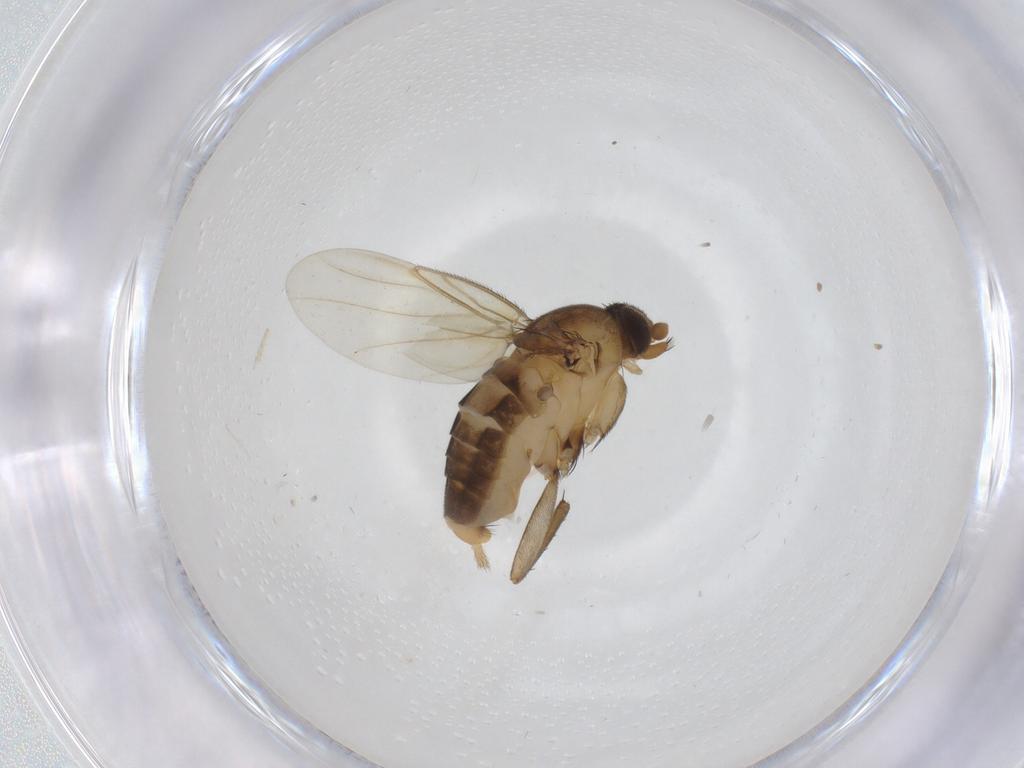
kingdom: Animalia
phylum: Arthropoda
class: Insecta
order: Diptera
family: Phoridae
